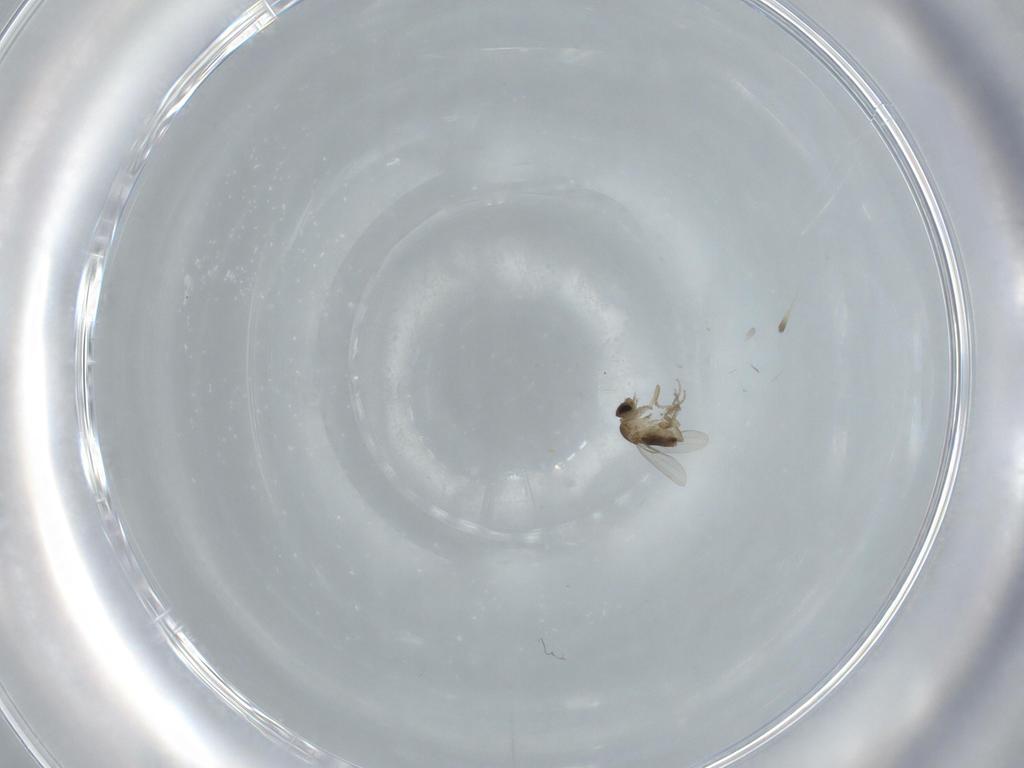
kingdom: Animalia
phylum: Arthropoda
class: Insecta
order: Diptera
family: Phoridae
